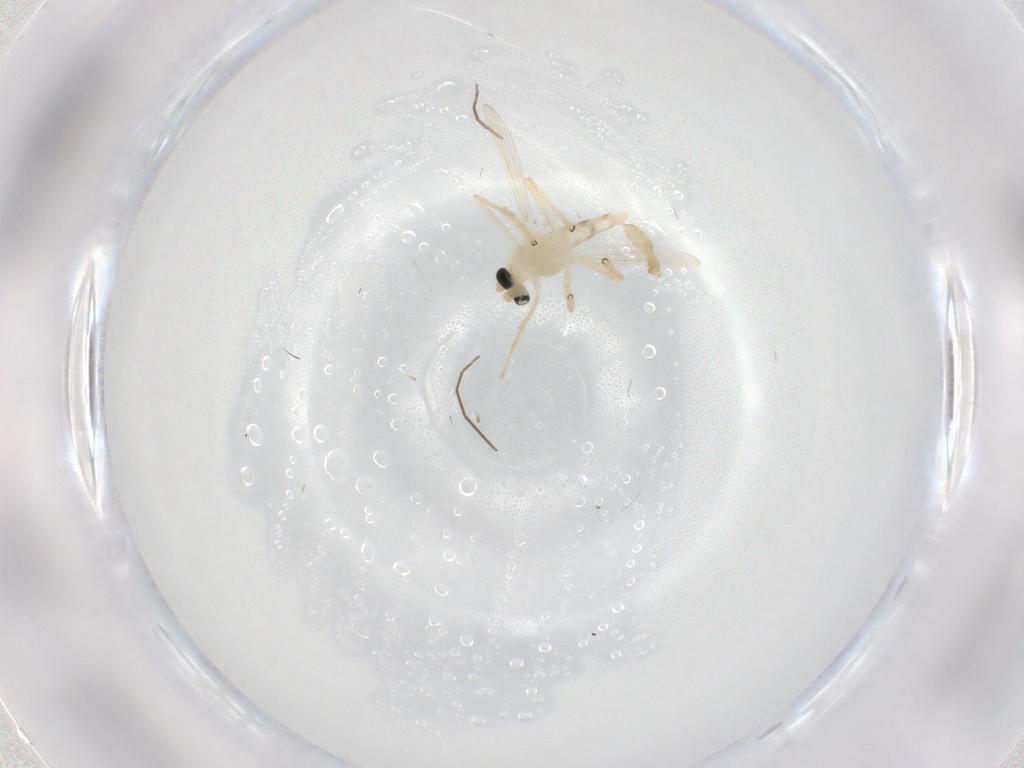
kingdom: Animalia
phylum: Arthropoda
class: Insecta
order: Diptera
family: Chironomidae
